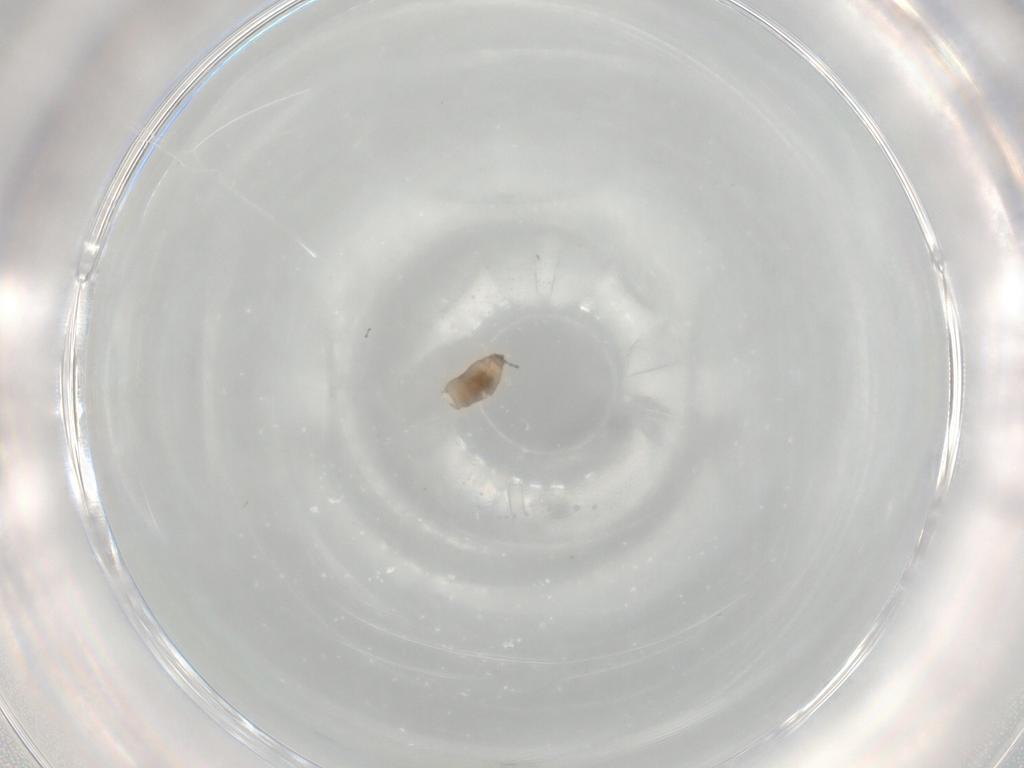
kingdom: Animalia
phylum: Arthropoda
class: Insecta
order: Diptera
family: Cecidomyiidae
